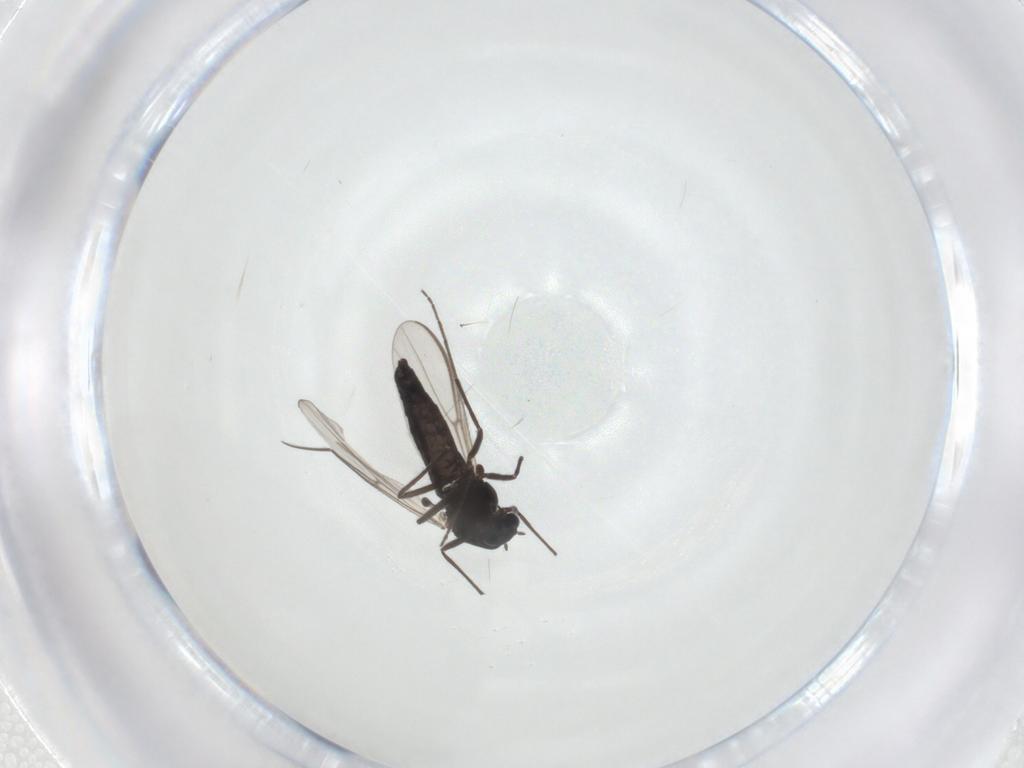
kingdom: Animalia
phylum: Arthropoda
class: Insecta
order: Diptera
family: Chironomidae
